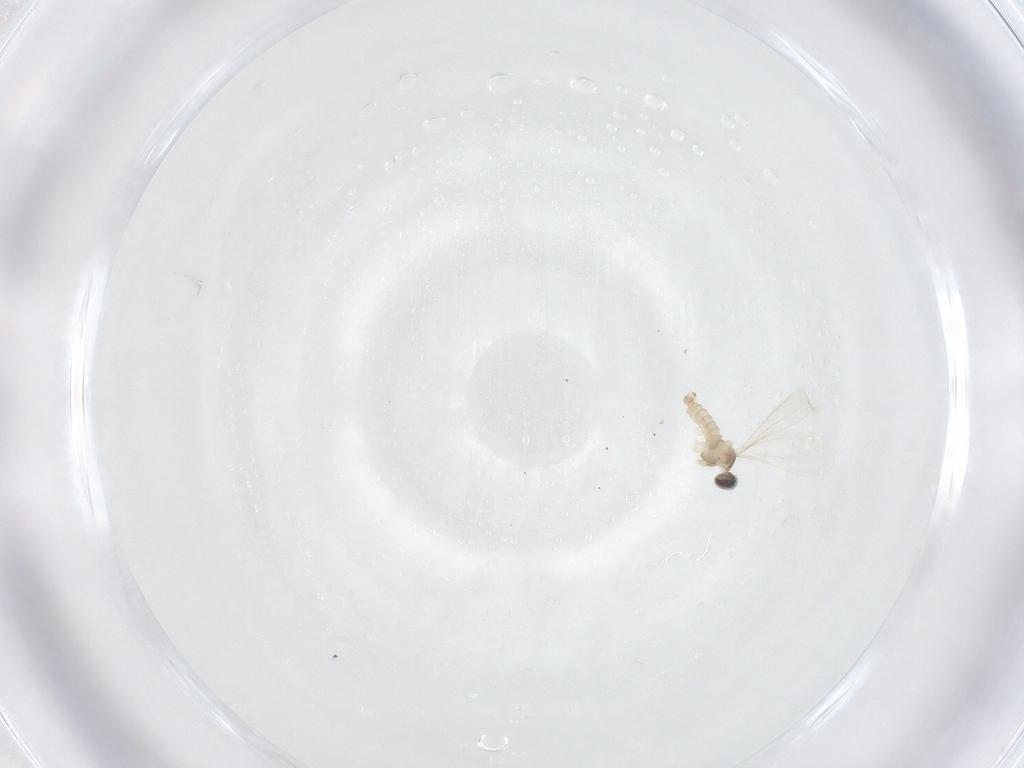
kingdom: Animalia
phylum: Arthropoda
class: Insecta
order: Diptera
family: Cecidomyiidae
